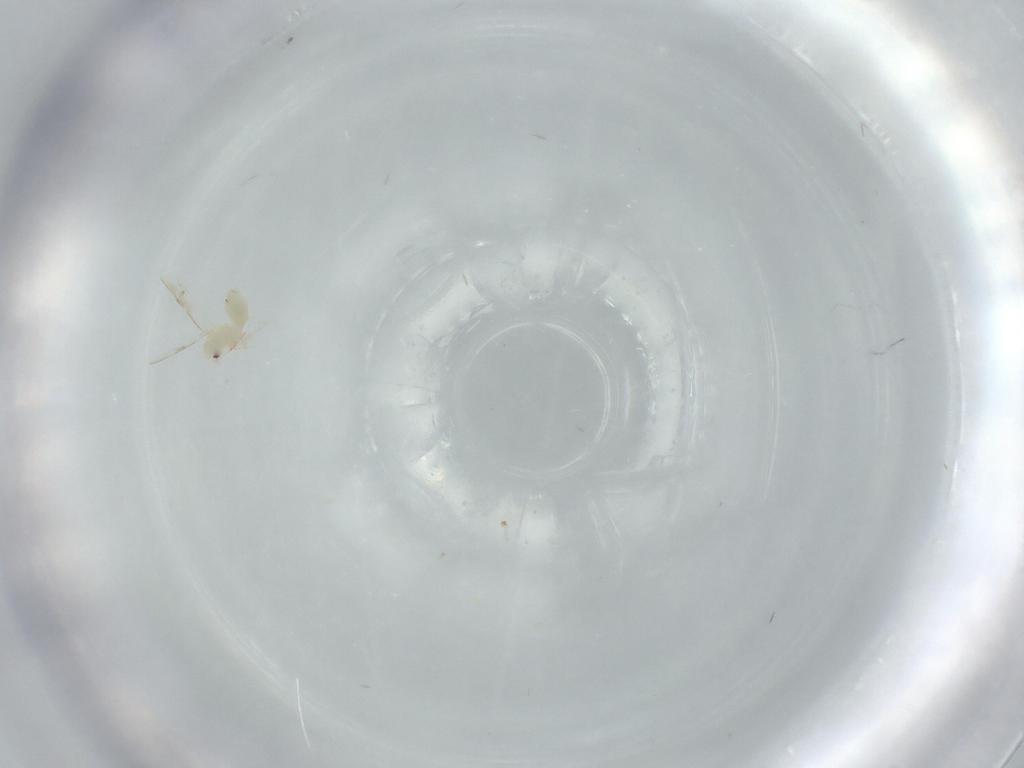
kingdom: Animalia
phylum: Arthropoda
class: Insecta
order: Hemiptera
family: Aleyrodidae
